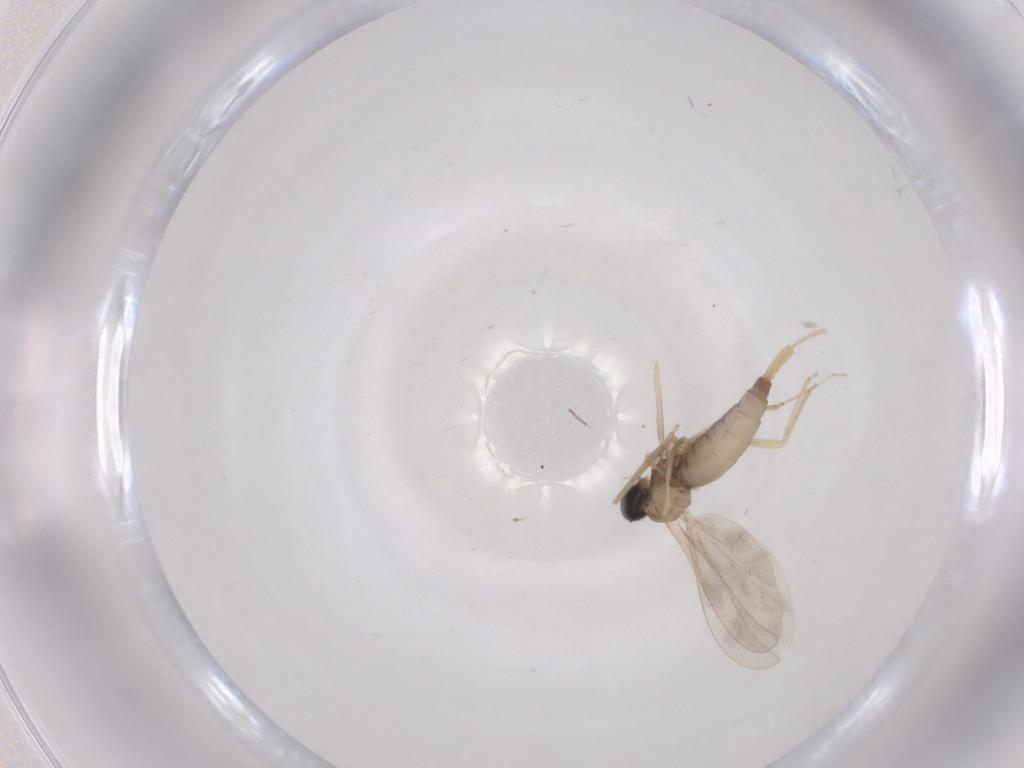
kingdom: Animalia
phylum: Arthropoda
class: Insecta
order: Diptera
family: Cecidomyiidae
